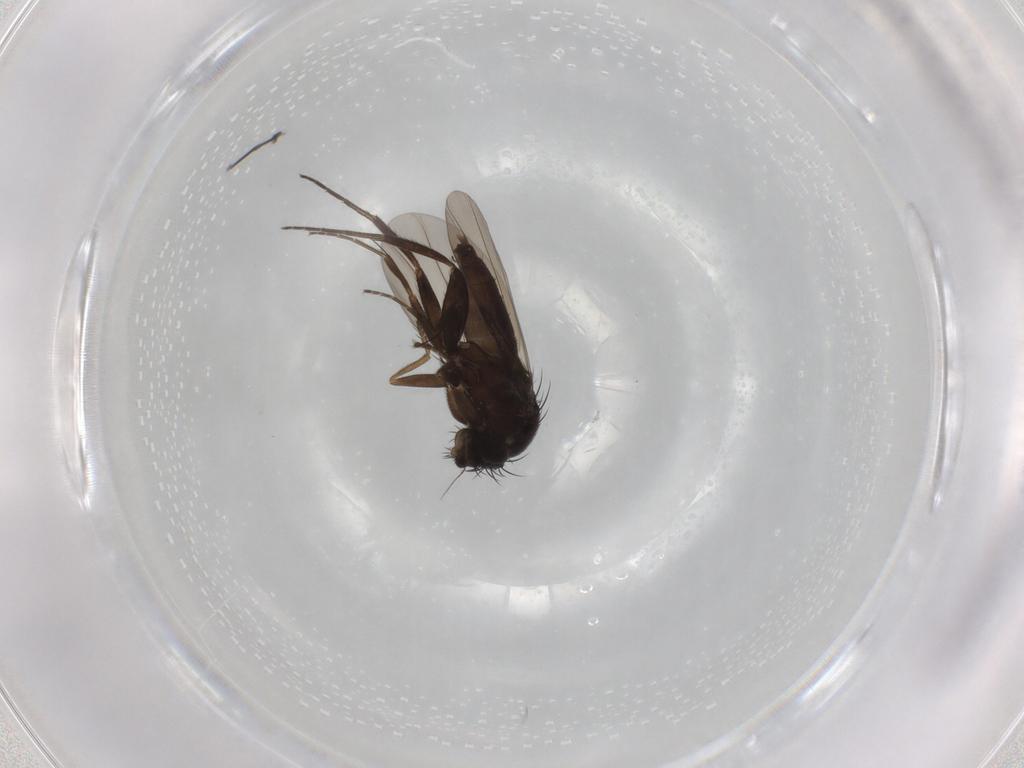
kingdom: Animalia
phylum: Arthropoda
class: Insecta
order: Diptera
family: Phoridae
